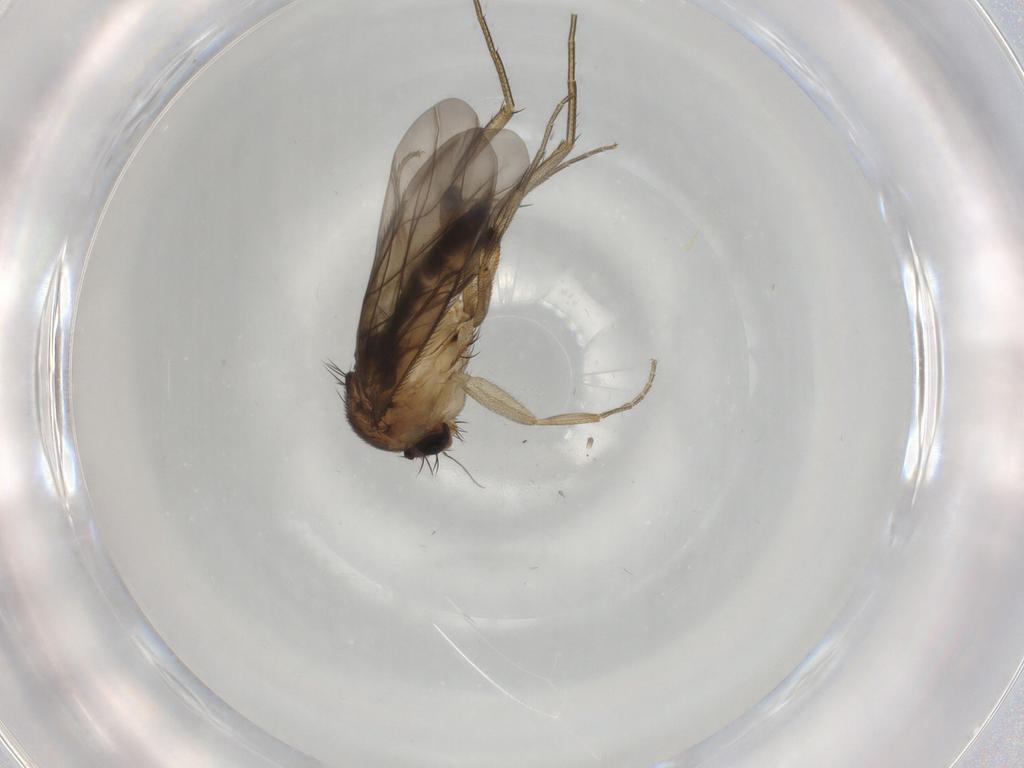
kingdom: Animalia
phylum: Arthropoda
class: Insecta
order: Diptera
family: Phoridae
